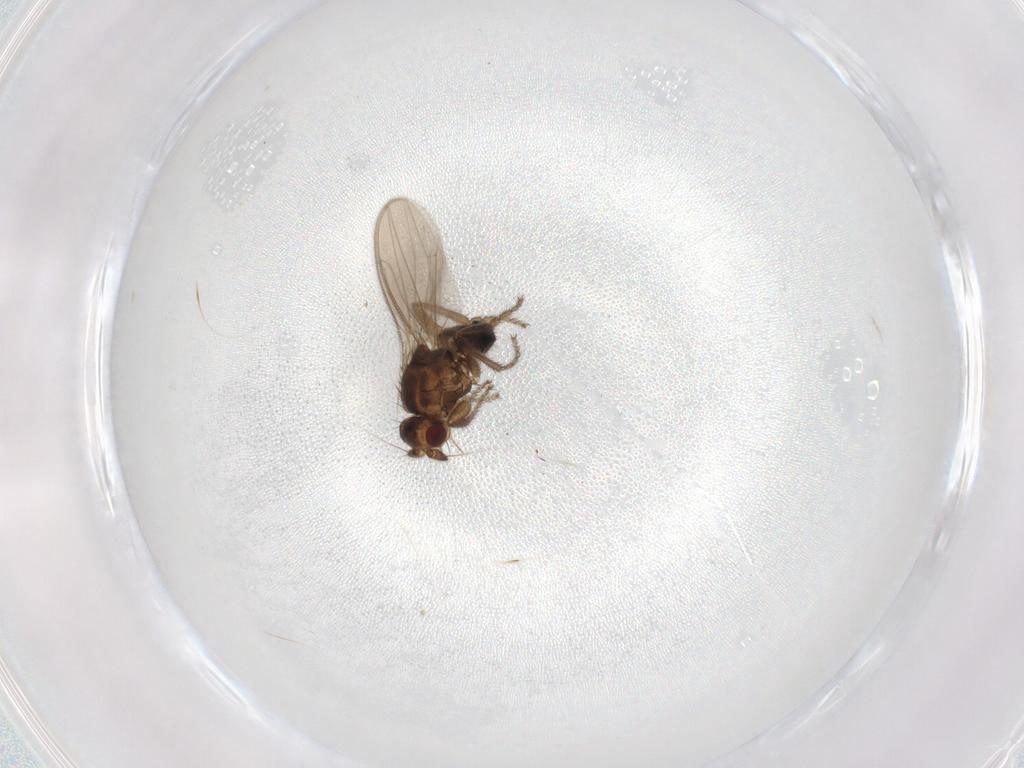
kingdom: Animalia
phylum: Arthropoda
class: Insecta
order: Diptera
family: Sphaeroceridae
